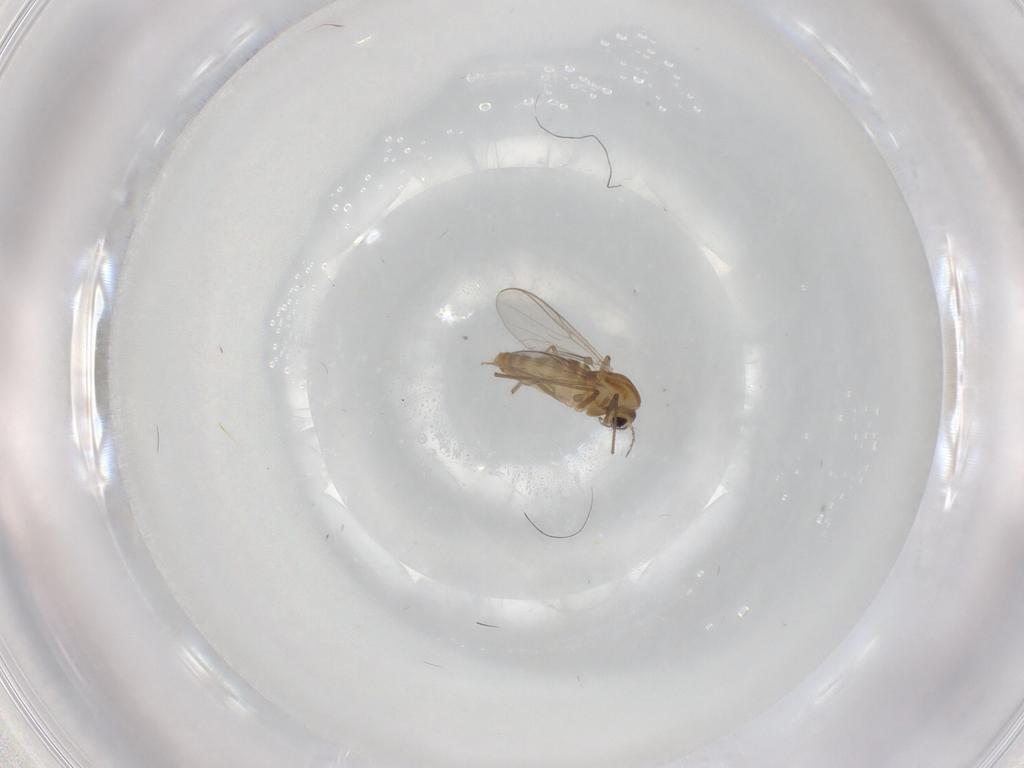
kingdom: Animalia
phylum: Arthropoda
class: Insecta
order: Diptera
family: Chironomidae
